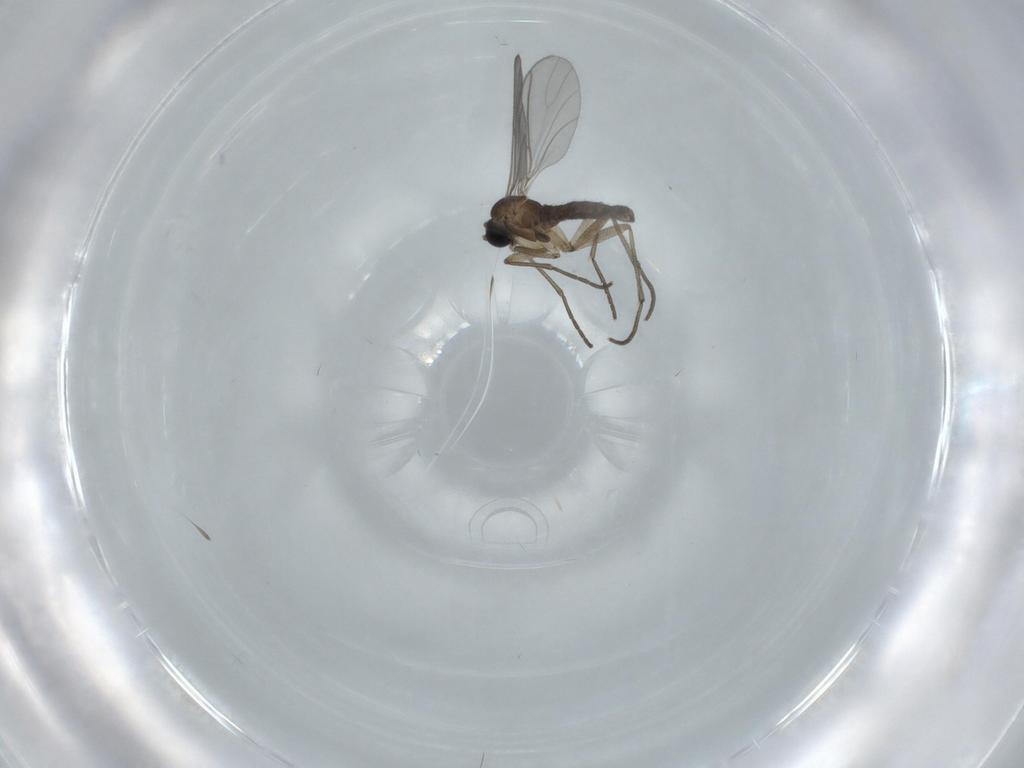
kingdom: Animalia
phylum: Arthropoda
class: Insecta
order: Diptera
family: Sciaridae
